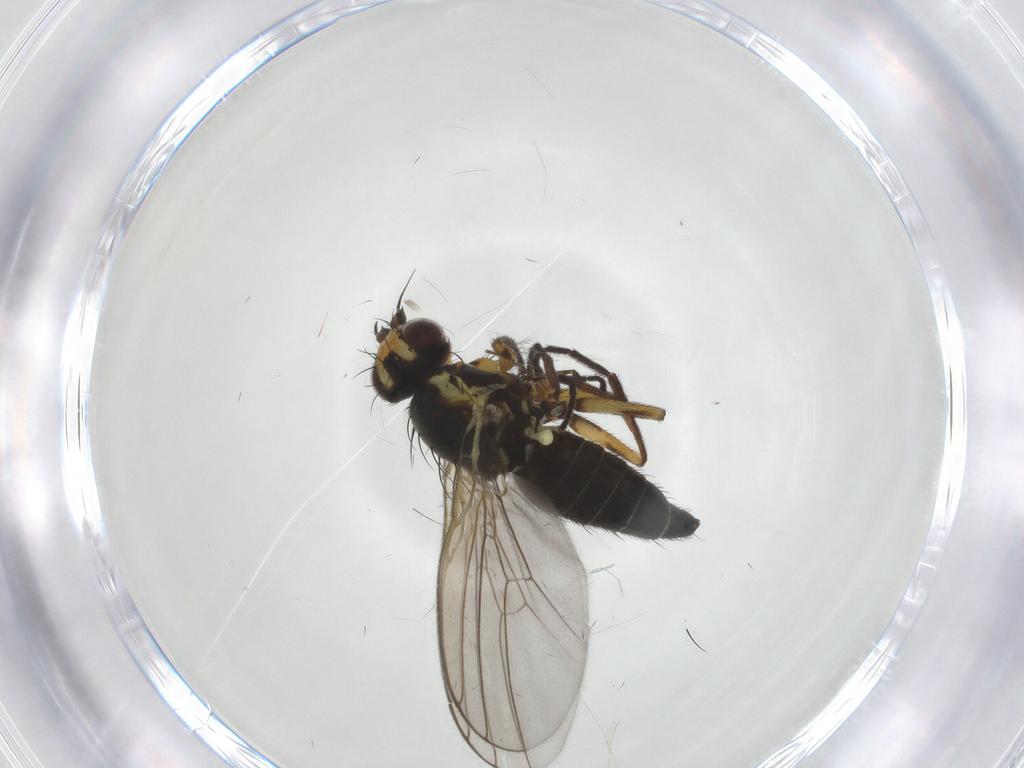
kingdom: Animalia
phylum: Arthropoda
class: Insecta
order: Diptera
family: Agromyzidae
